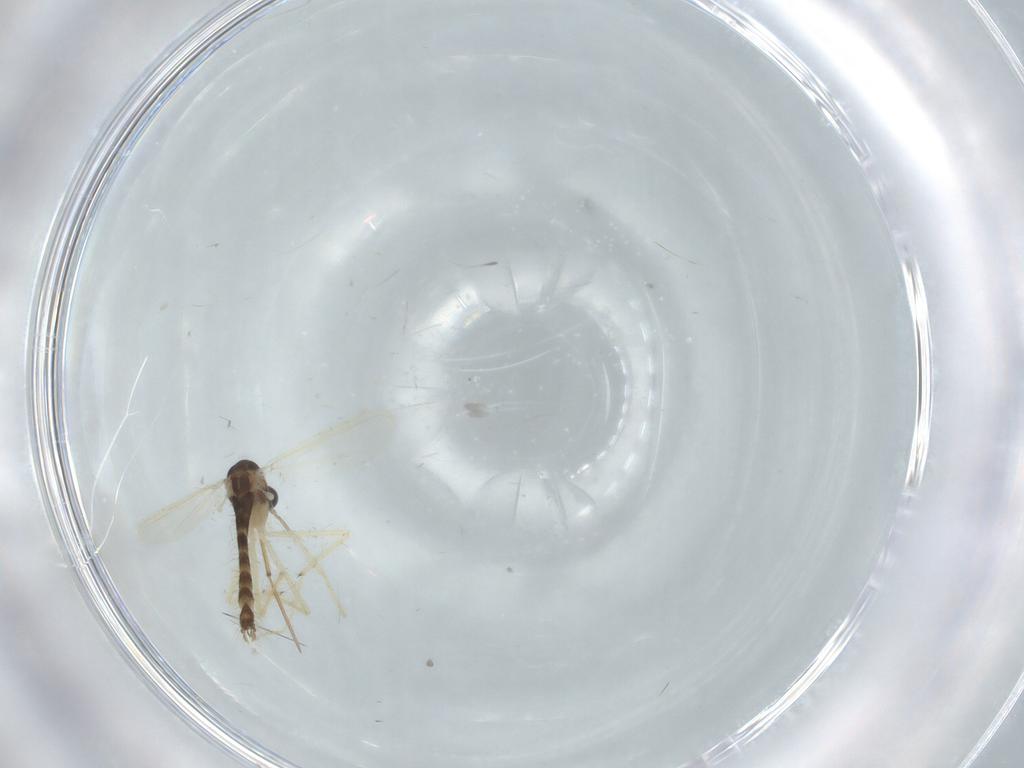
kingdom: Animalia
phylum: Arthropoda
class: Insecta
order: Diptera
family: Chironomidae
